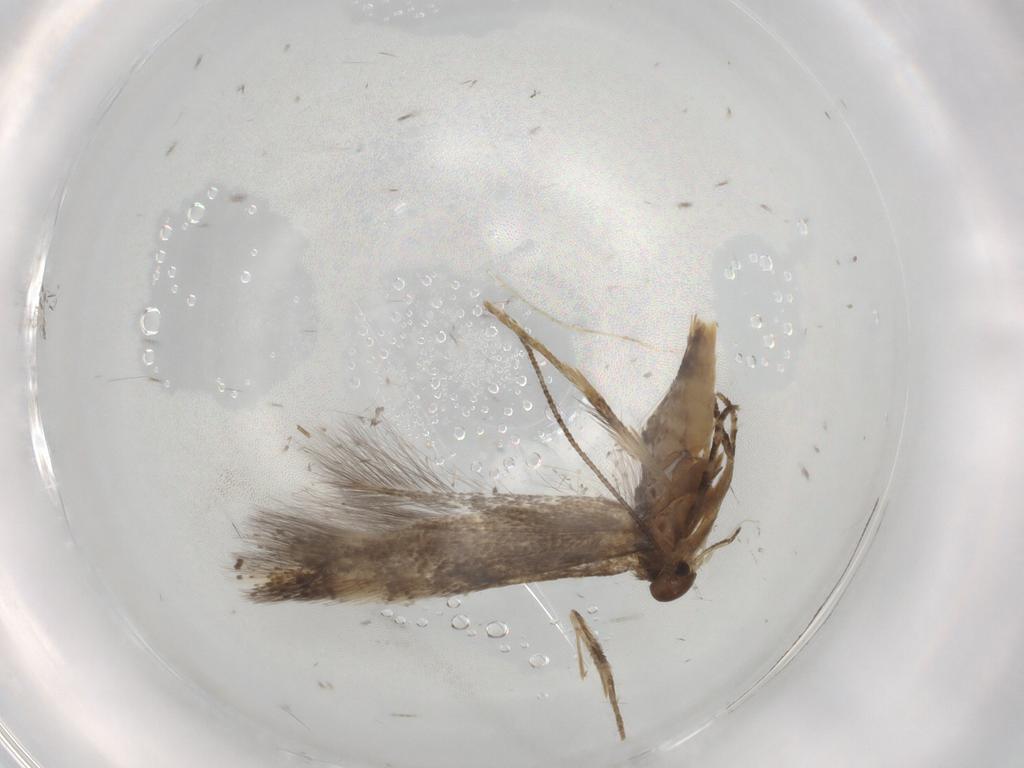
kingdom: Animalia
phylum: Arthropoda
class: Insecta
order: Lepidoptera
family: Elachistidae
